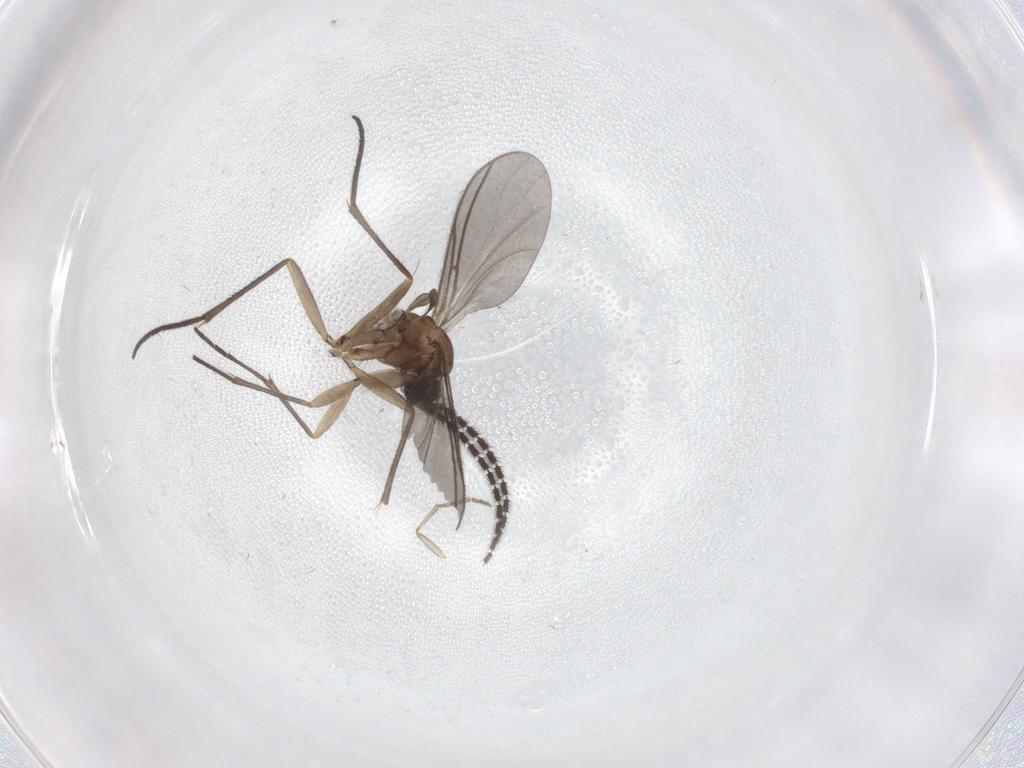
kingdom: Animalia
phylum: Arthropoda
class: Insecta
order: Diptera
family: Sciaridae
